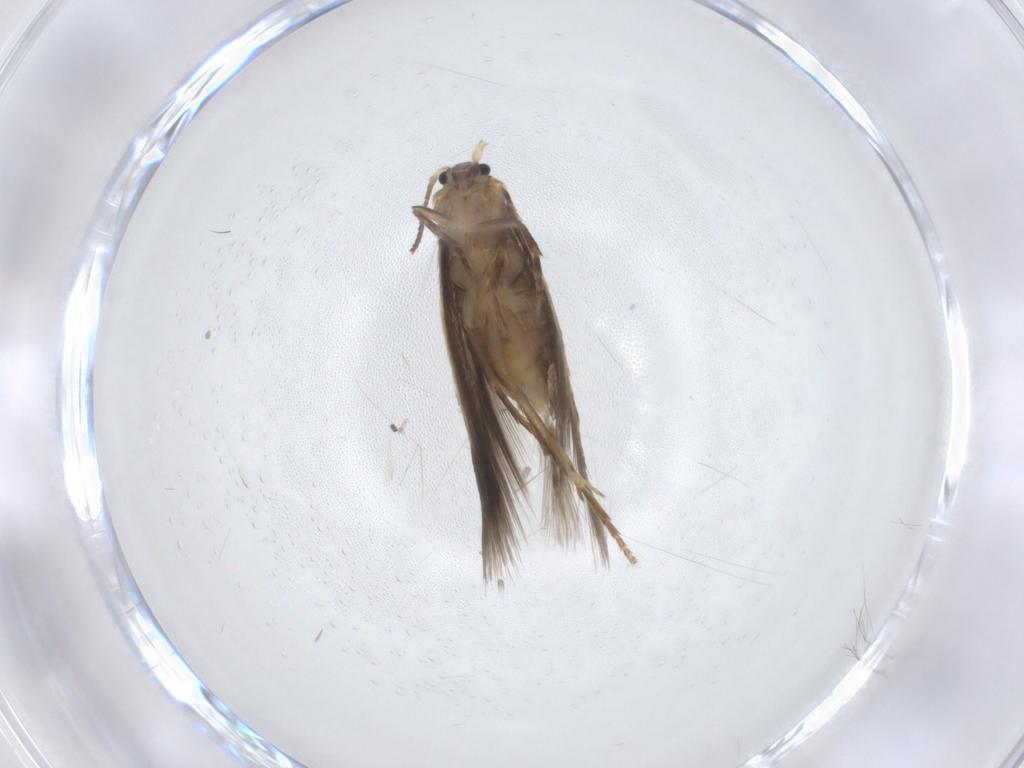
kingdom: Animalia
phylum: Arthropoda
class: Insecta
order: Lepidoptera
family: Nepticulidae
